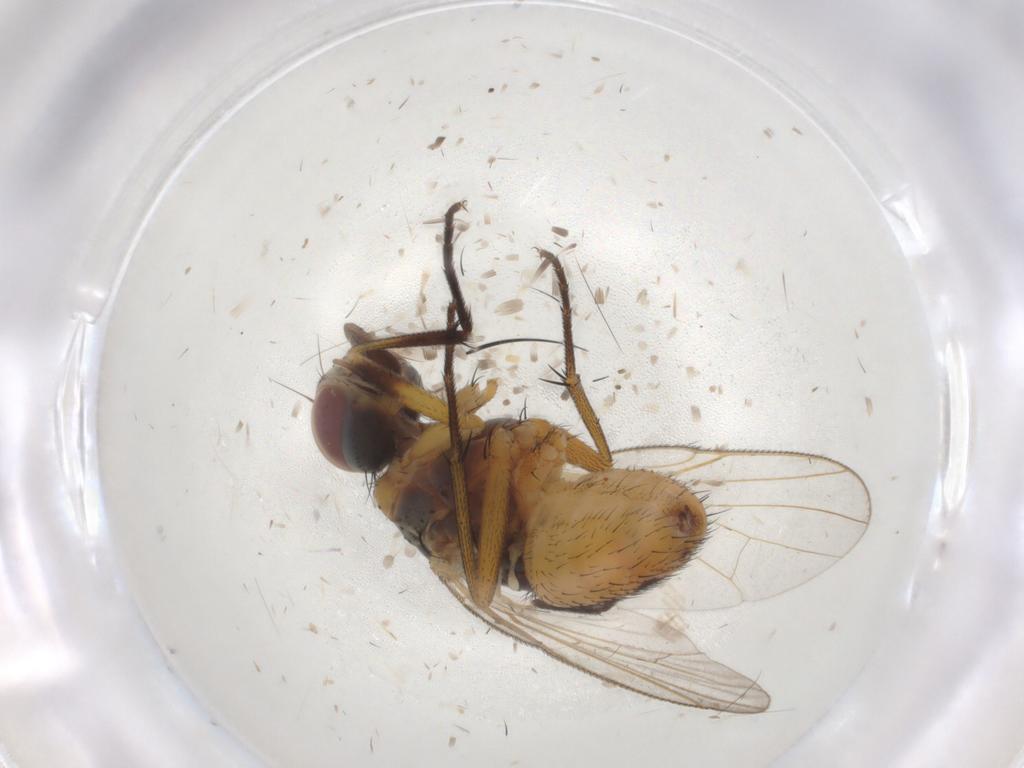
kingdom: Animalia
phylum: Arthropoda
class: Insecta
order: Diptera
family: Muscidae
